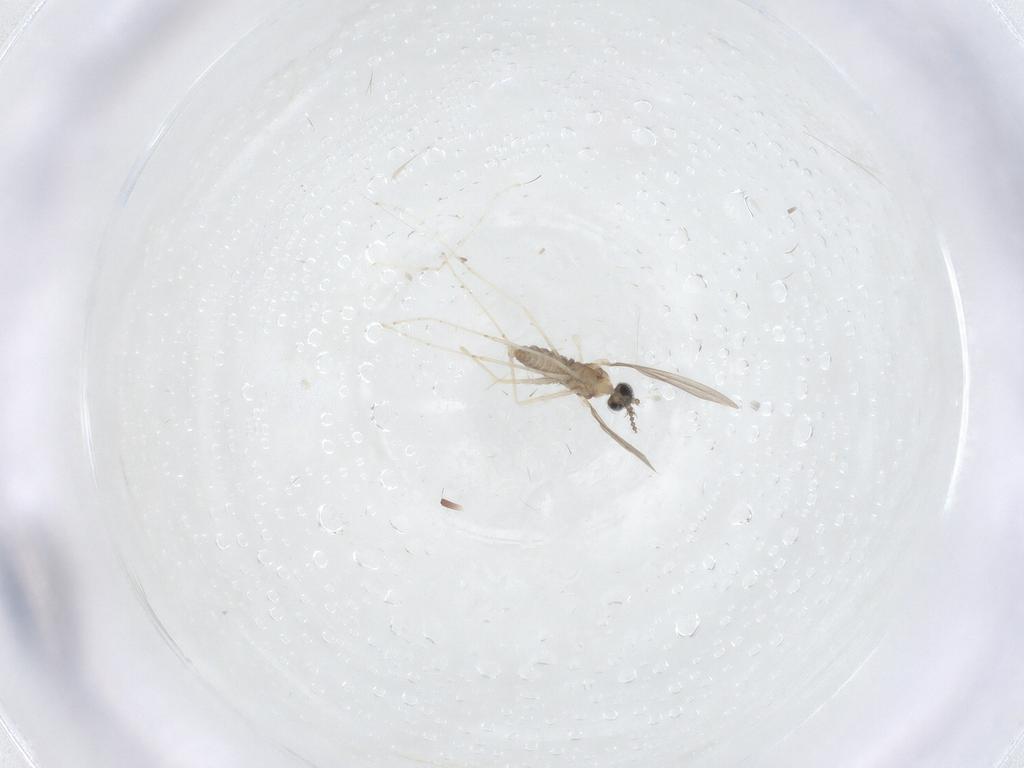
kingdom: Animalia
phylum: Arthropoda
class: Insecta
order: Diptera
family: Cecidomyiidae
